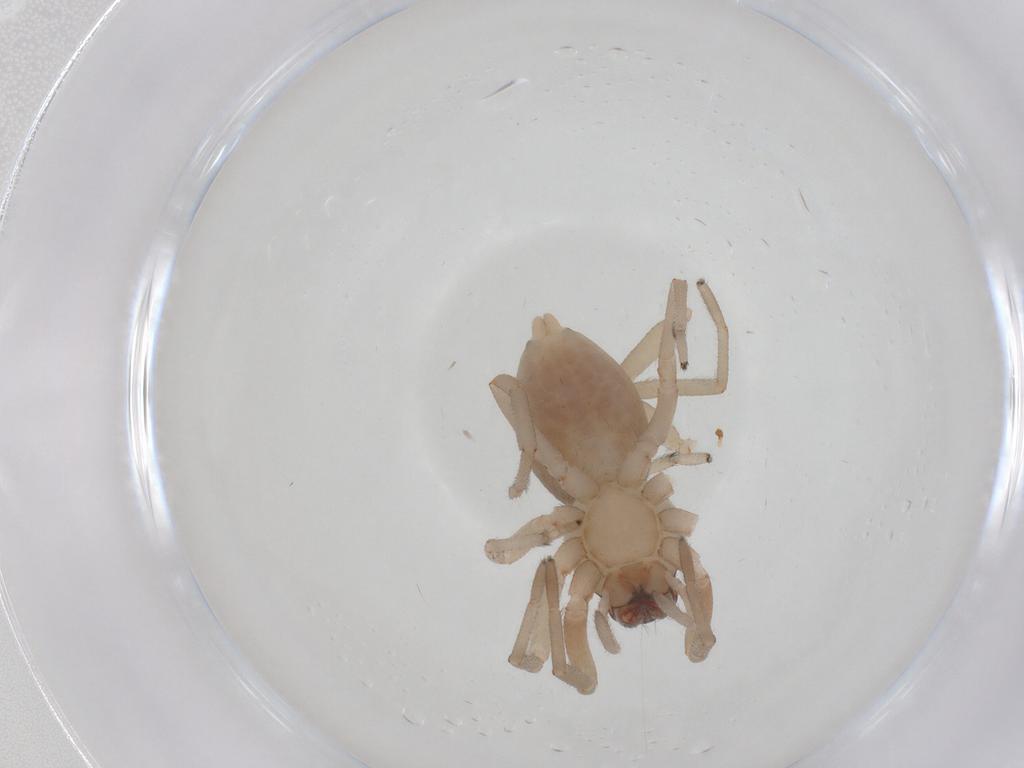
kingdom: Animalia
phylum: Arthropoda
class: Arachnida
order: Araneae
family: Trachelidae
